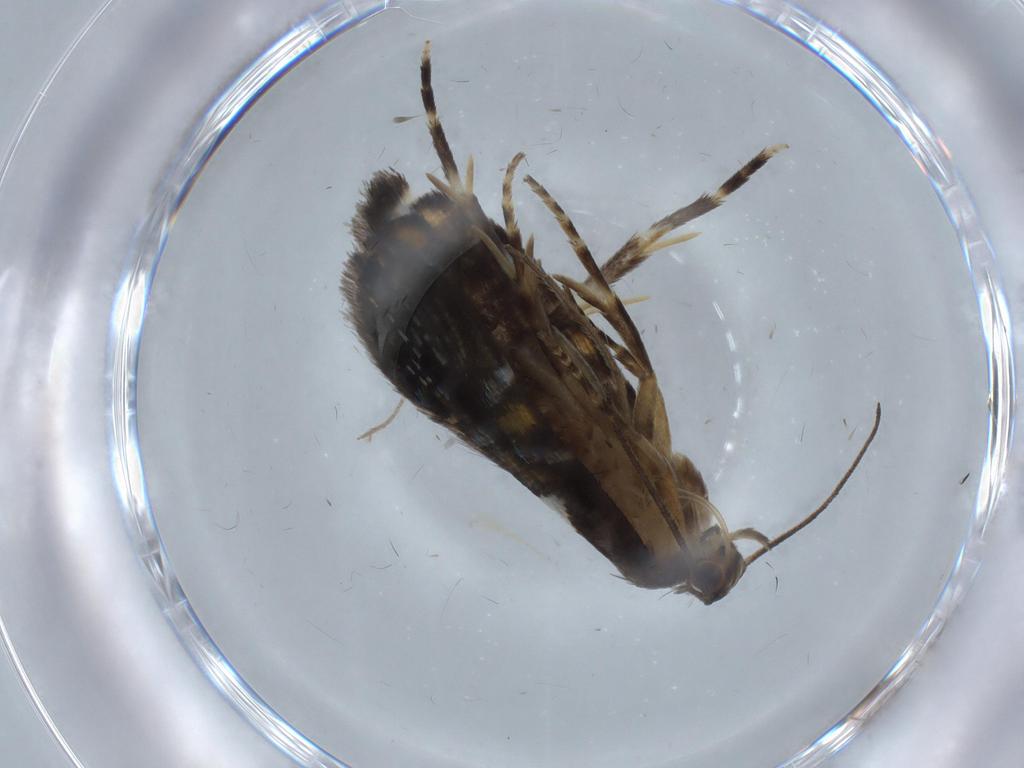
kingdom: Animalia
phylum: Arthropoda
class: Insecta
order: Lepidoptera
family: Glyphipterigidae
